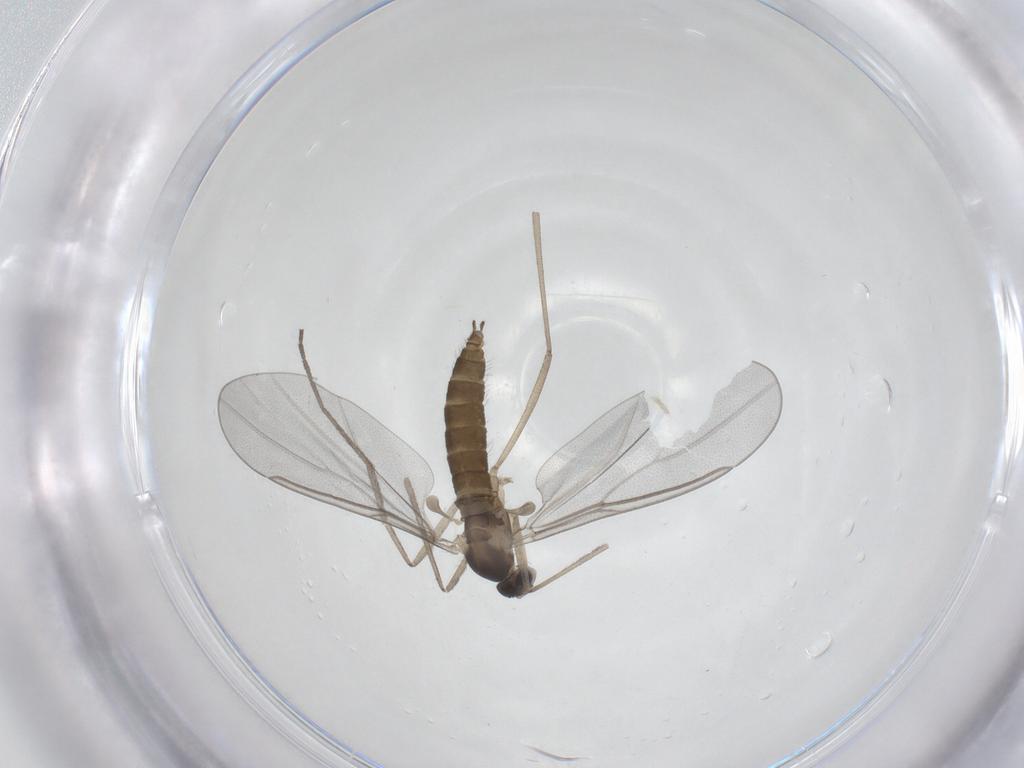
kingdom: Animalia
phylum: Arthropoda
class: Insecta
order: Diptera
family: Cecidomyiidae
